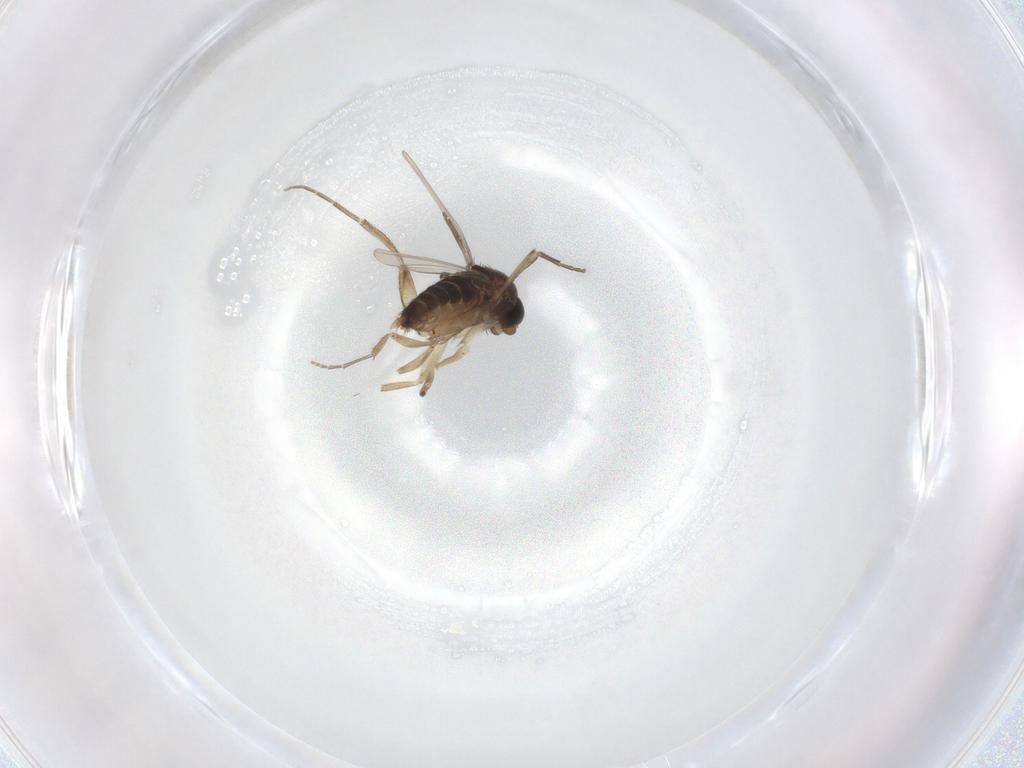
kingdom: Animalia
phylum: Arthropoda
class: Insecta
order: Diptera
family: Phoridae
